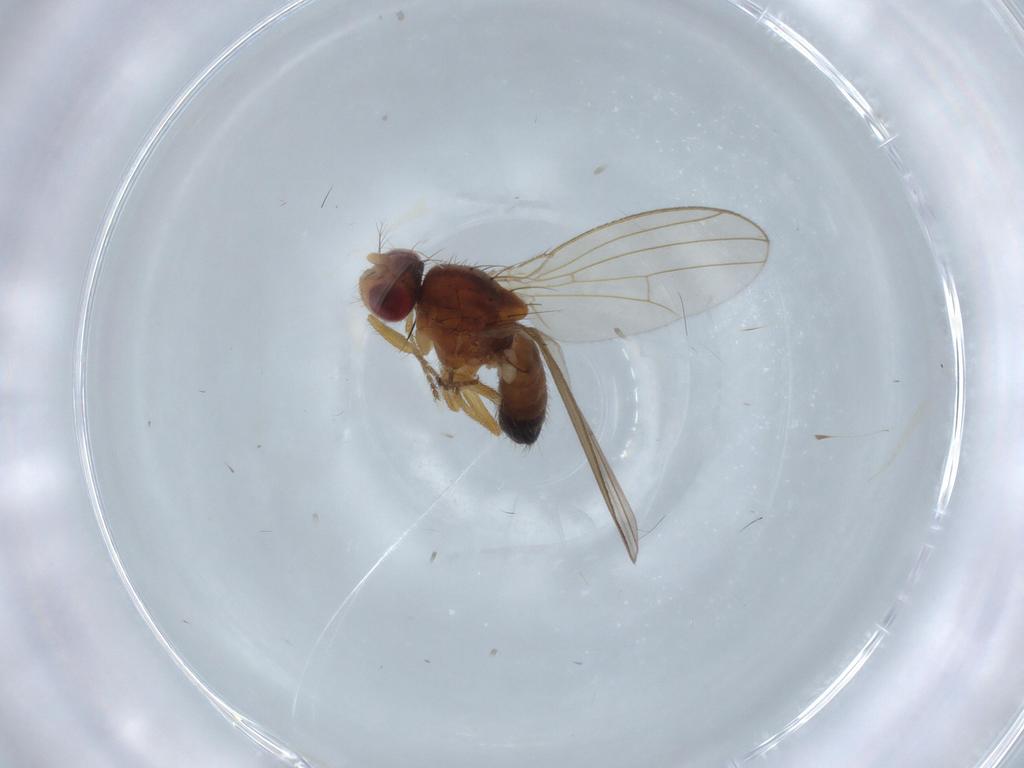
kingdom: Animalia
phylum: Arthropoda
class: Insecta
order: Diptera
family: Drosophilidae
